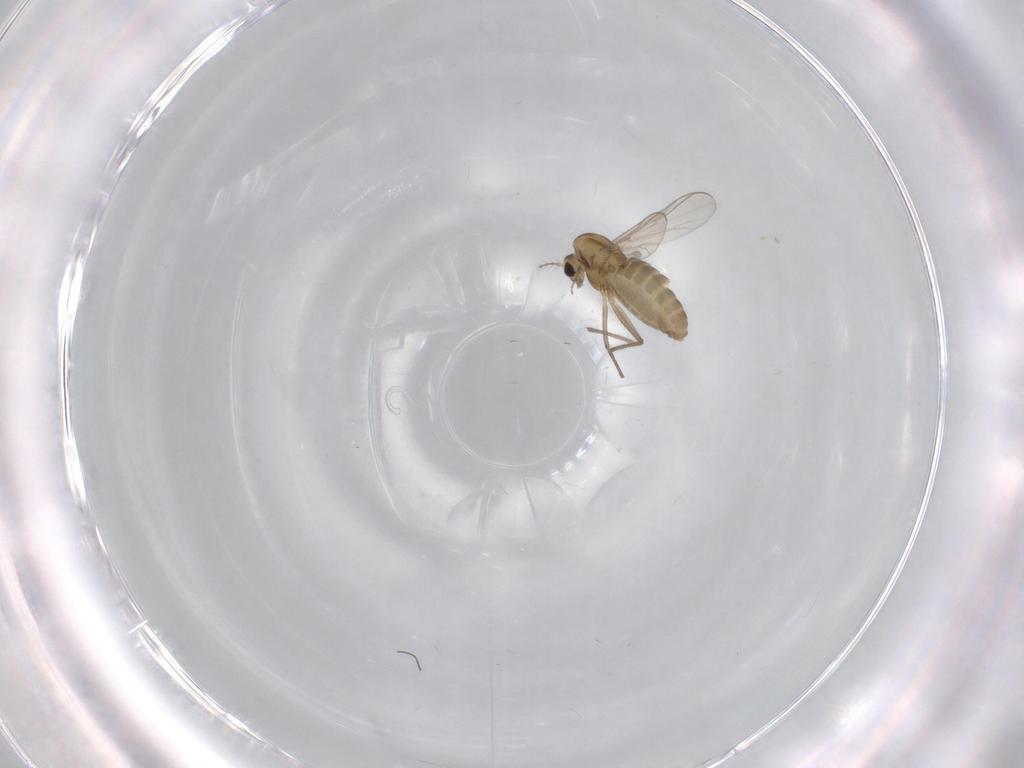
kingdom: Animalia
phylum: Arthropoda
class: Insecta
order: Diptera
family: Chironomidae
